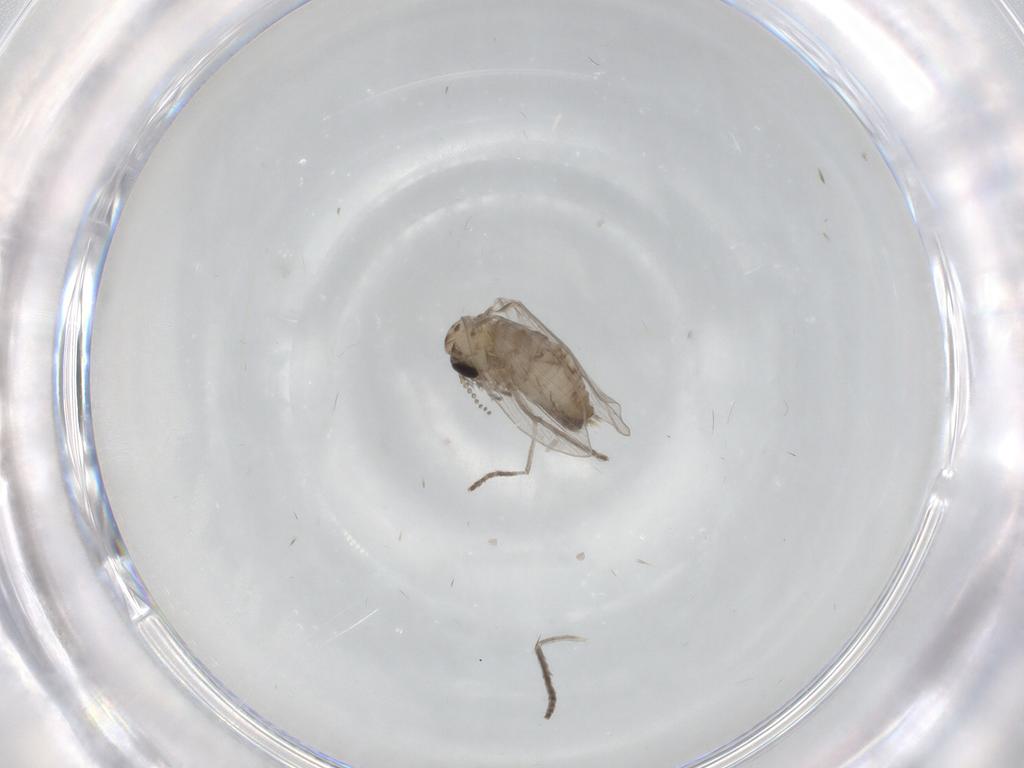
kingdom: Animalia
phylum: Arthropoda
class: Insecta
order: Diptera
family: Drosophilidae
